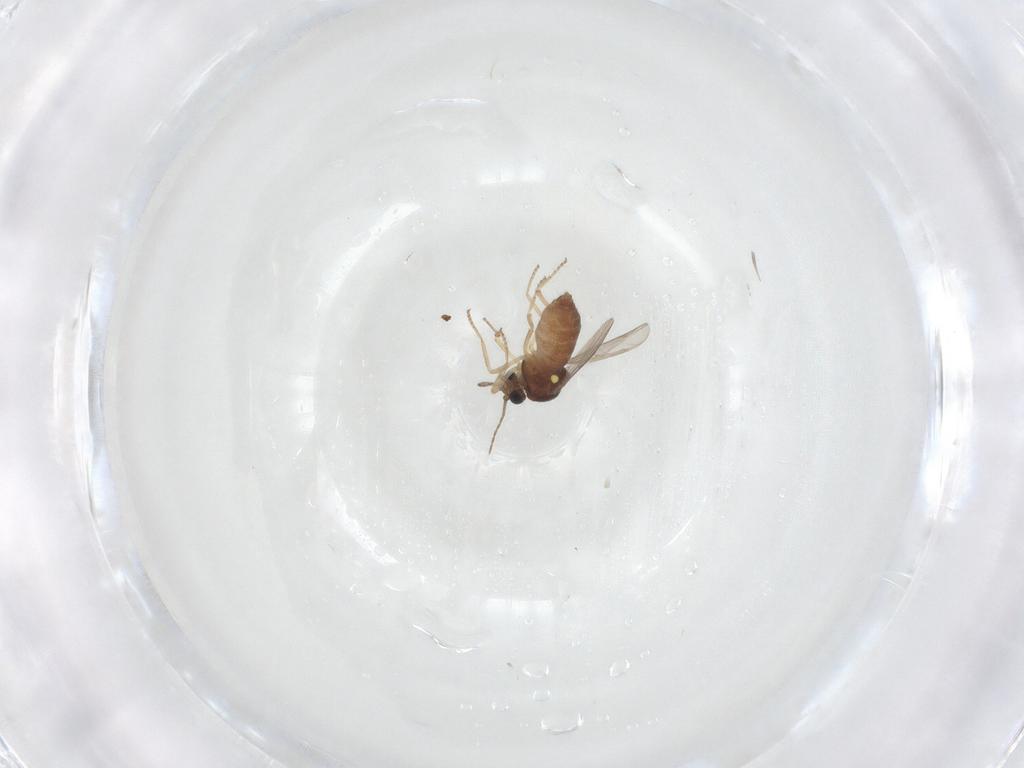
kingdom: Animalia
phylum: Arthropoda
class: Insecta
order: Diptera
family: Ceratopogonidae
